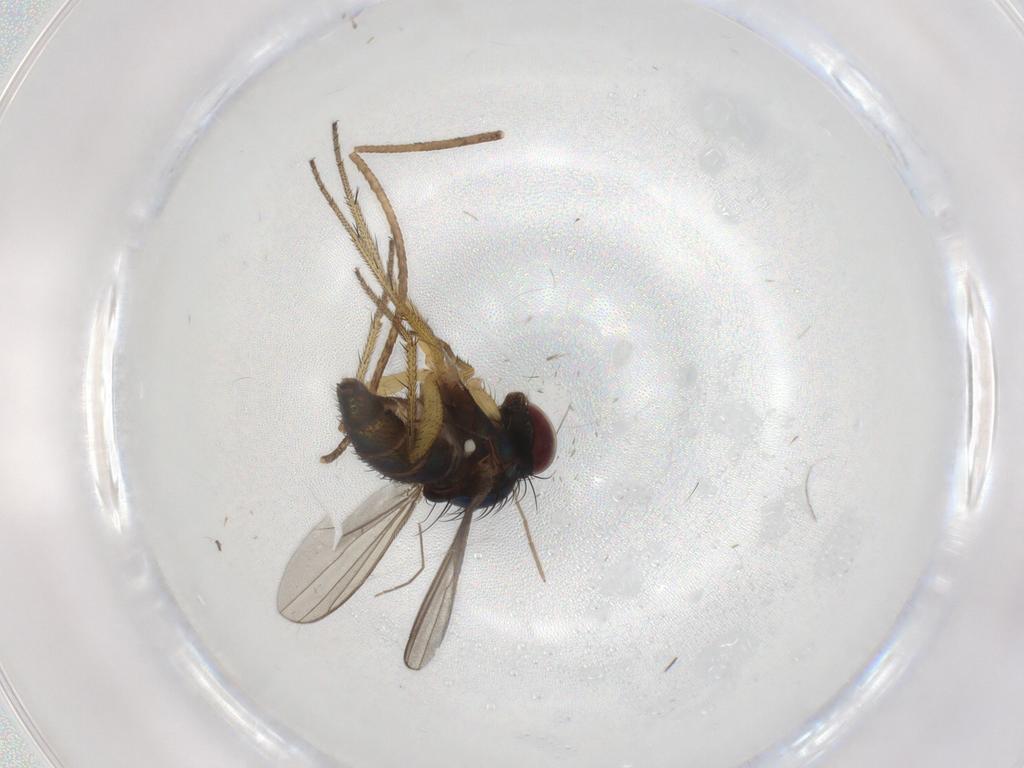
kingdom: Animalia
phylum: Arthropoda
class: Insecta
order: Diptera
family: Chironomidae
